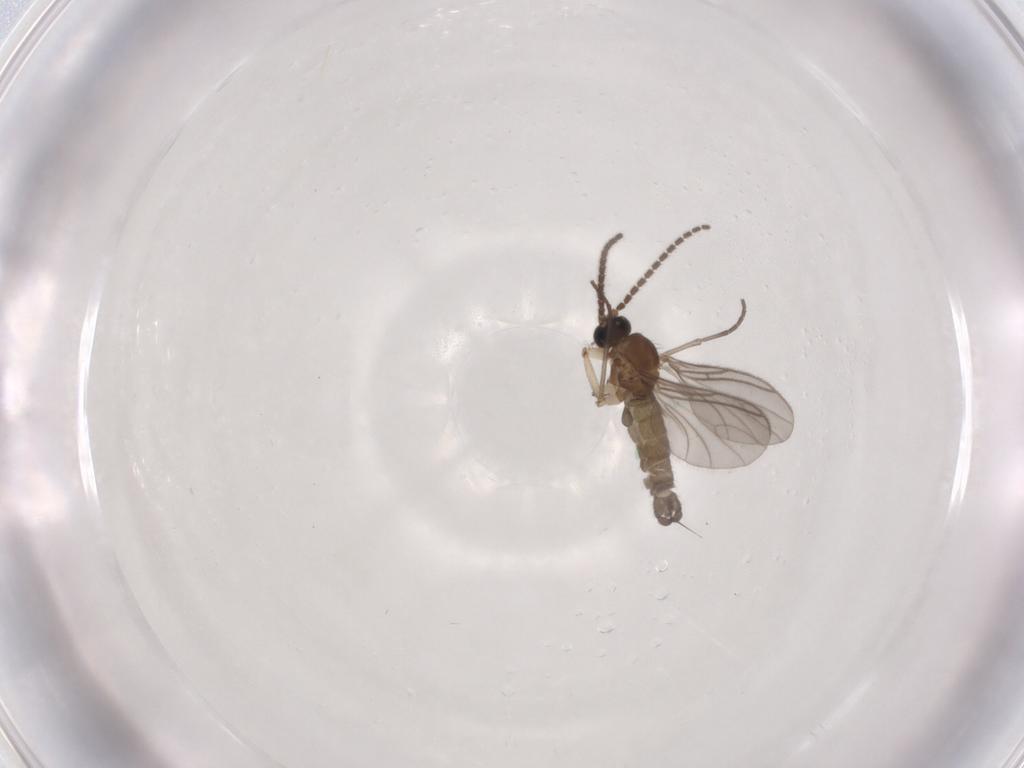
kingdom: Animalia
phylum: Arthropoda
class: Insecta
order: Diptera
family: Sciaridae
